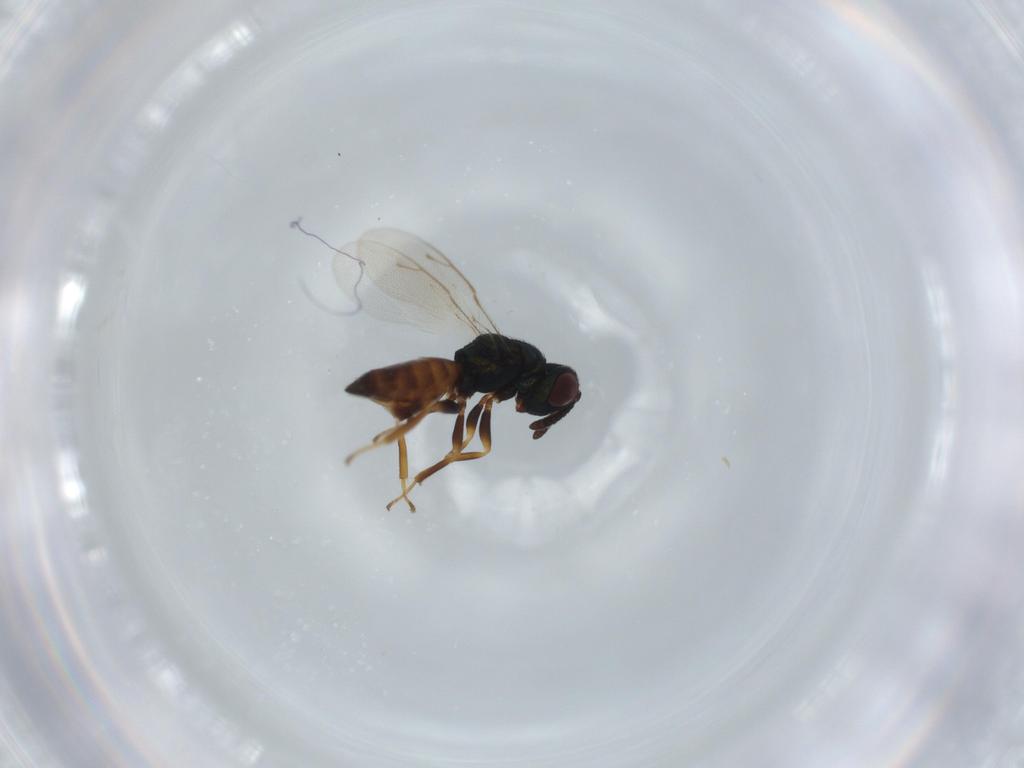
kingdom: Animalia
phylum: Arthropoda
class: Insecta
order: Hymenoptera
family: Pteromalidae
